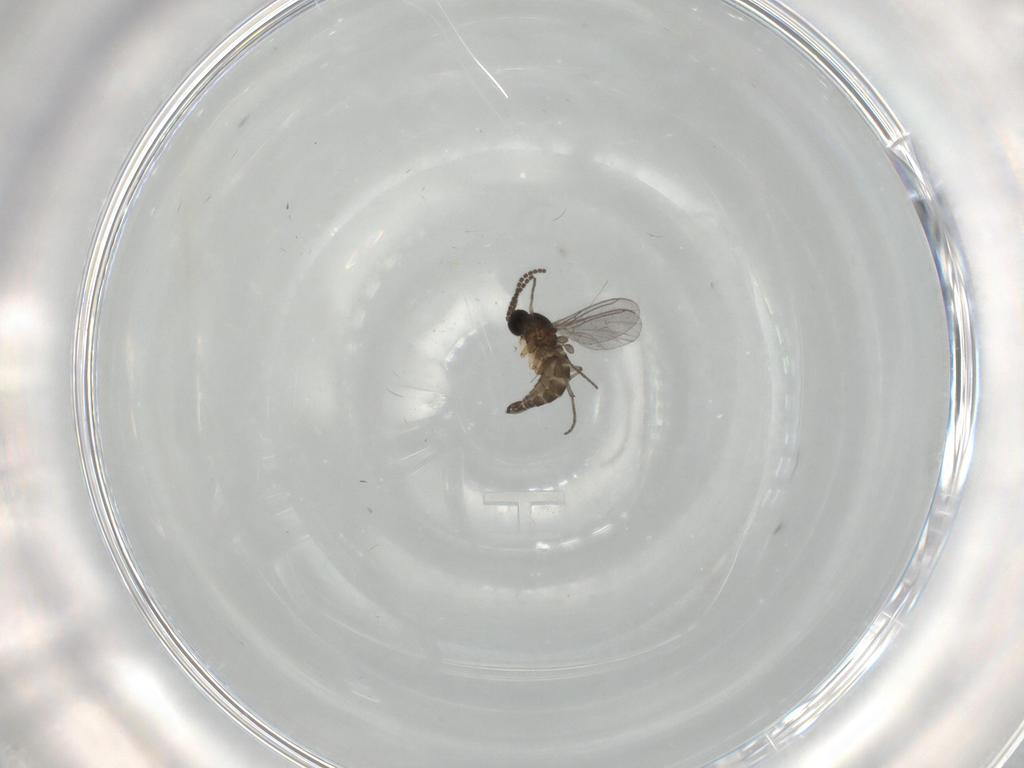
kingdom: Animalia
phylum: Arthropoda
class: Insecta
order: Diptera
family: Sciaridae
